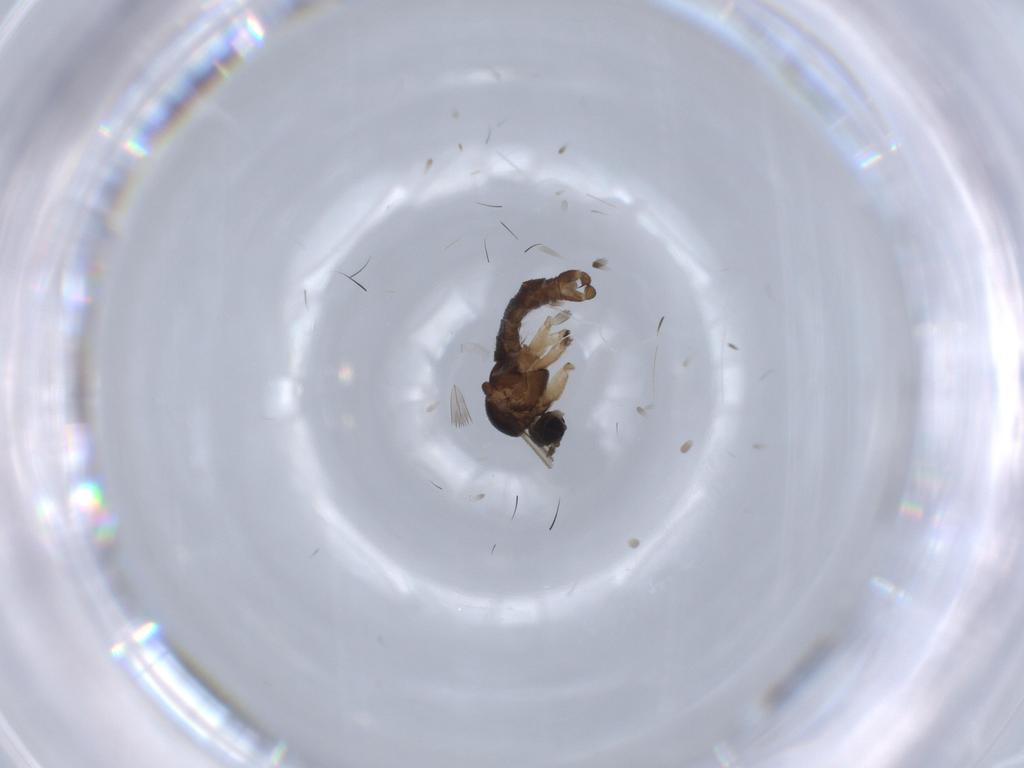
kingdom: Animalia
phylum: Arthropoda
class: Insecta
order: Diptera
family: Sciaridae
